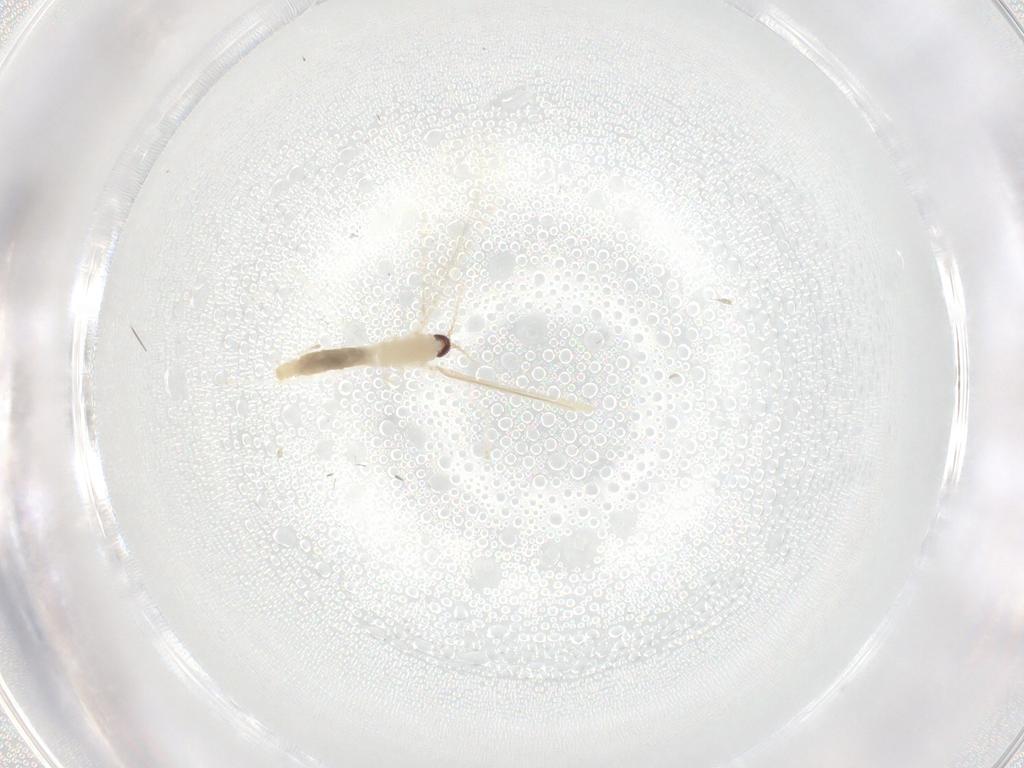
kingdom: Animalia
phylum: Arthropoda
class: Insecta
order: Diptera
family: Cecidomyiidae
